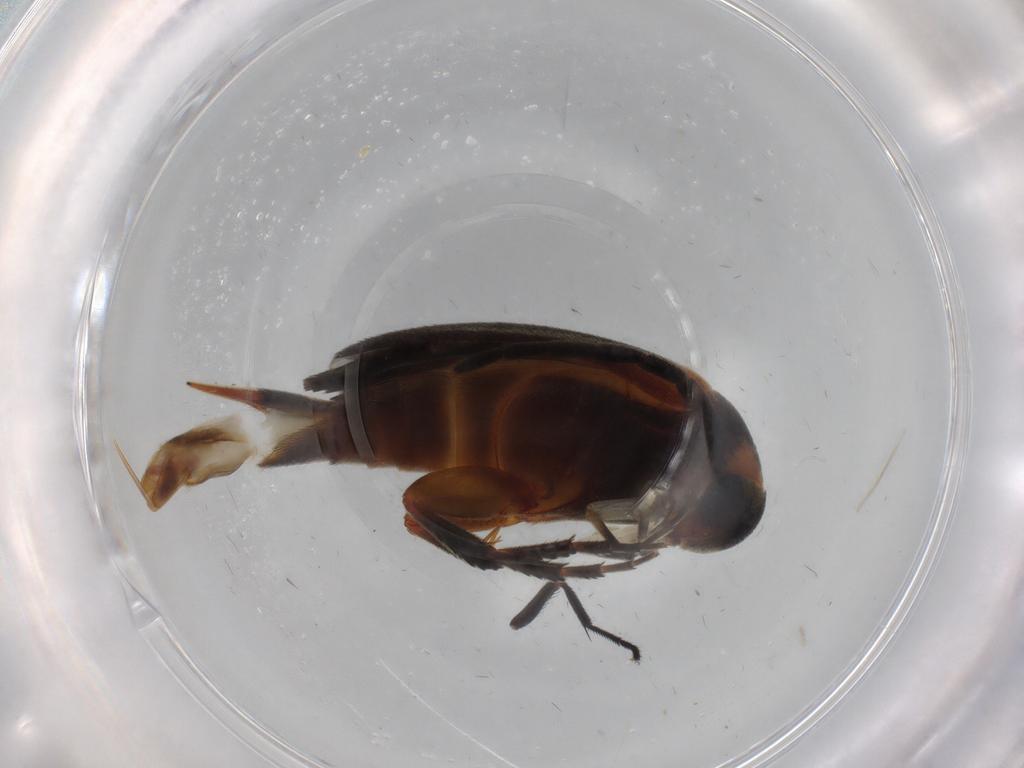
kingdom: Animalia
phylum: Arthropoda
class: Insecta
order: Coleoptera
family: Mordellidae
